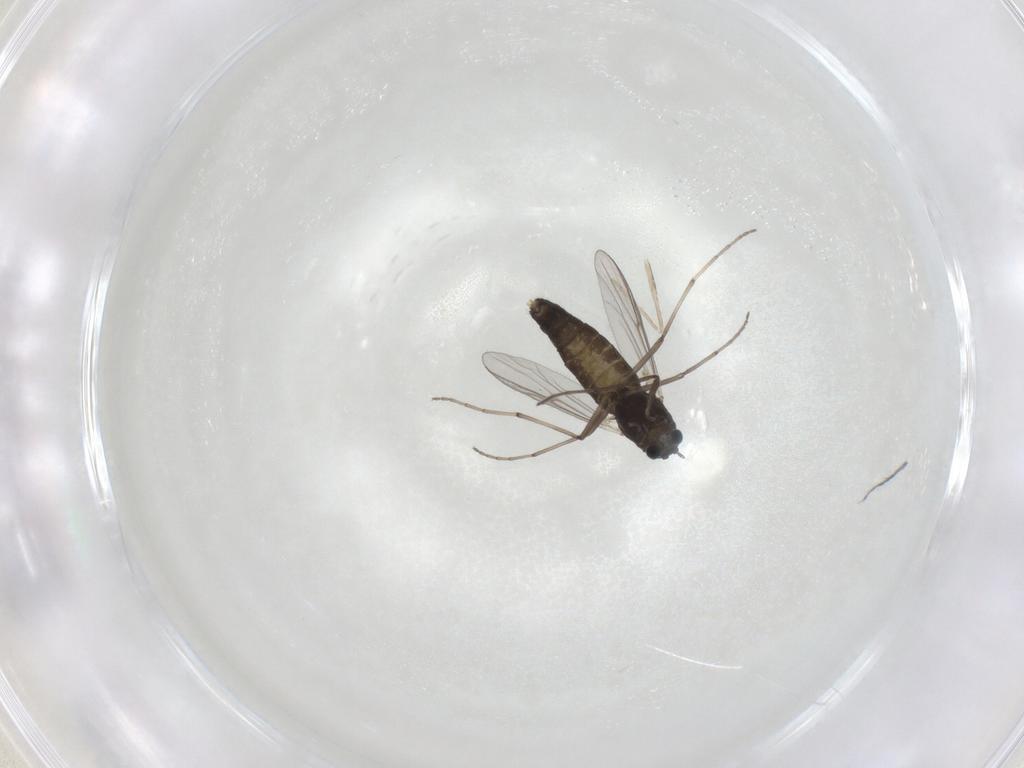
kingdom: Animalia
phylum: Arthropoda
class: Insecta
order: Diptera
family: Chironomidae
